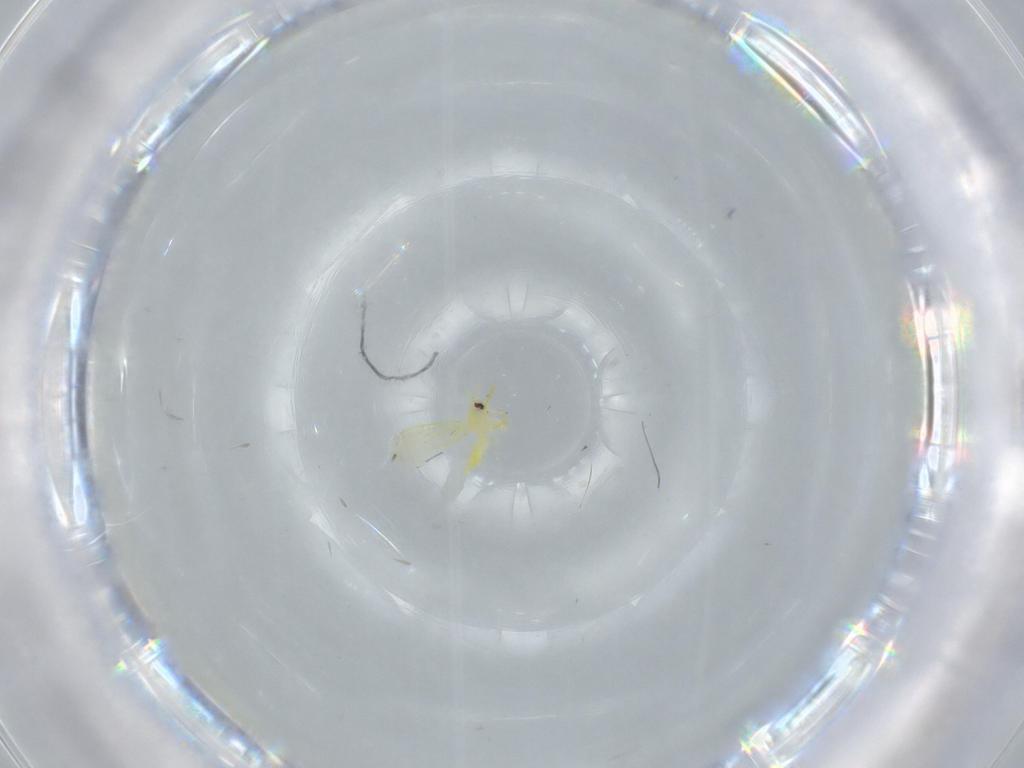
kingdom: Animalia
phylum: Arthropoda
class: Insecta
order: Hemiptera
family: Aleyrodidae
